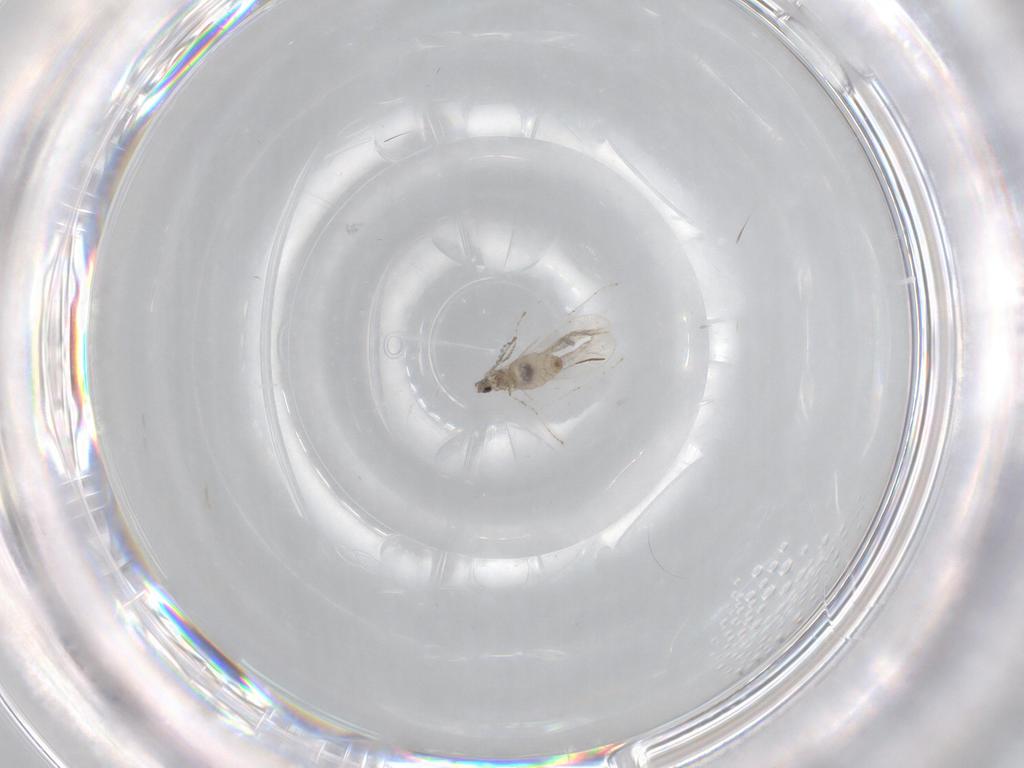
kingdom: Animalia
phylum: Arthropoda
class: Insecta
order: Diptera
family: Cecidomyiidae
